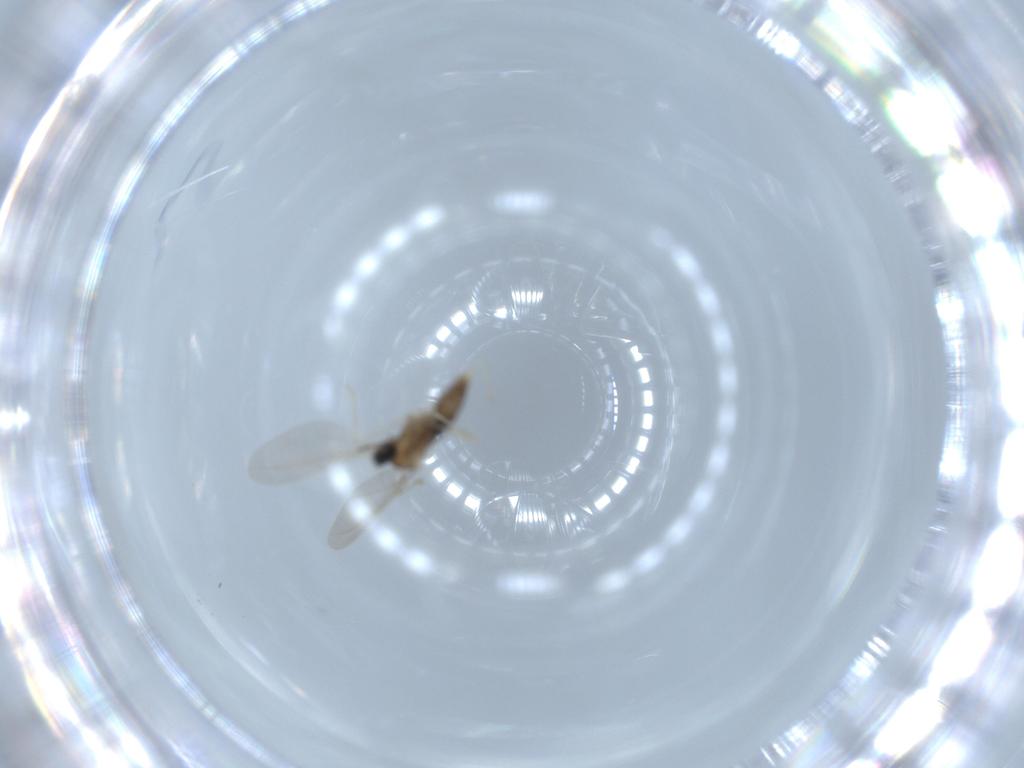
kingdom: Animalia
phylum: Arthropoda
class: Insecta
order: Diptera
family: Cecidomyiidae
